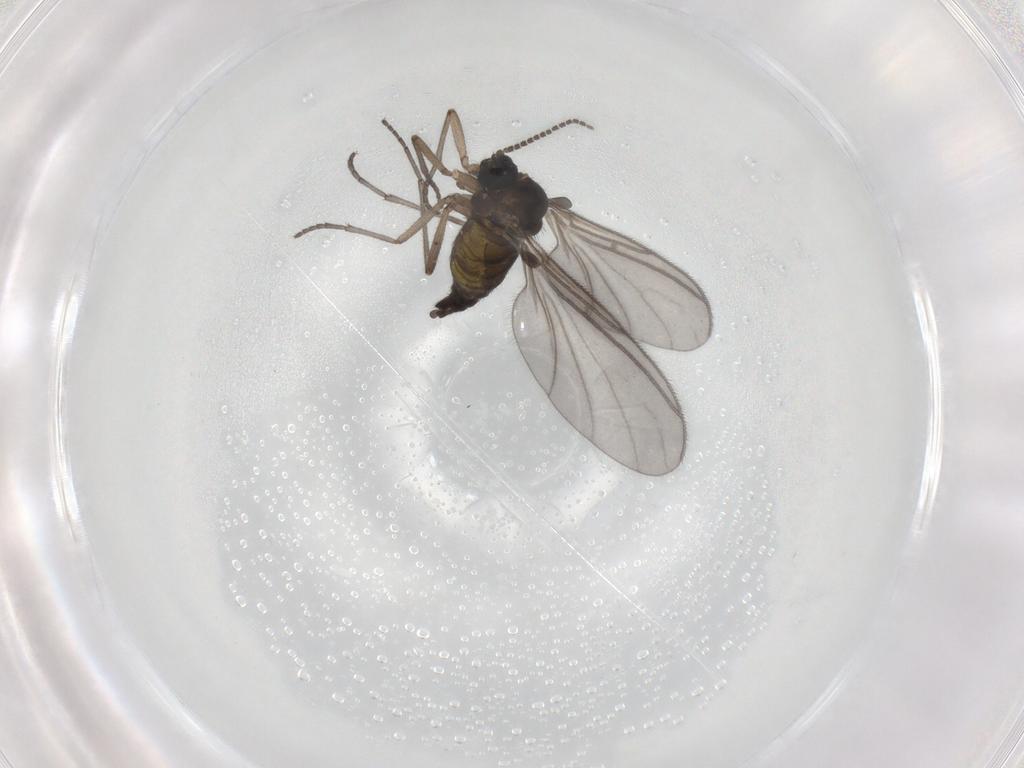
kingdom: Animalia
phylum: Arthropoda
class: Insecta
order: Diptera
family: Sciaridae
